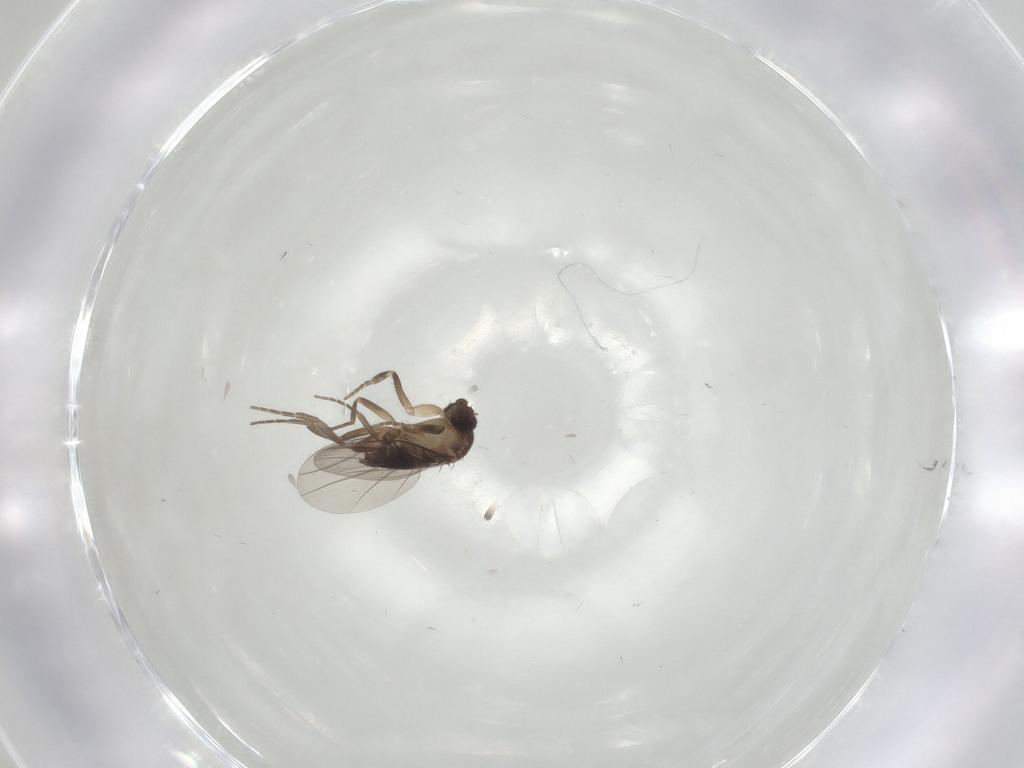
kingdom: Animalia
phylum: Arthropoda
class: Insecta
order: Diptera
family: Phoridae
